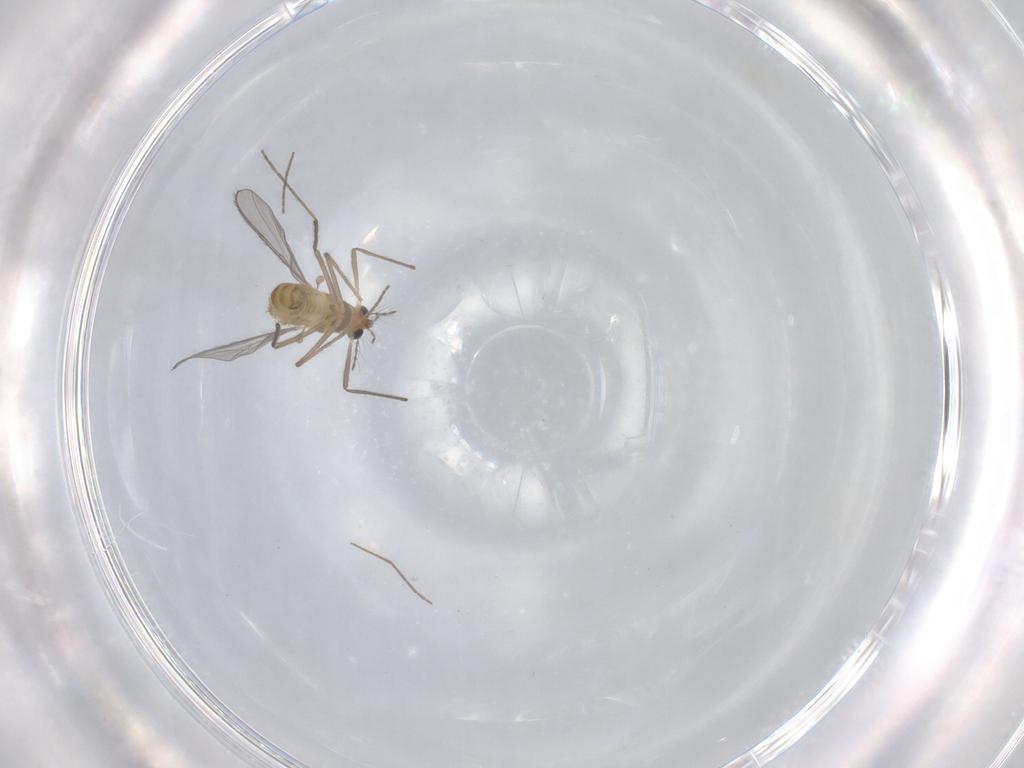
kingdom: Animalia
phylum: Arthropoda
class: Insecta
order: Diptera
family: Chironomidae
